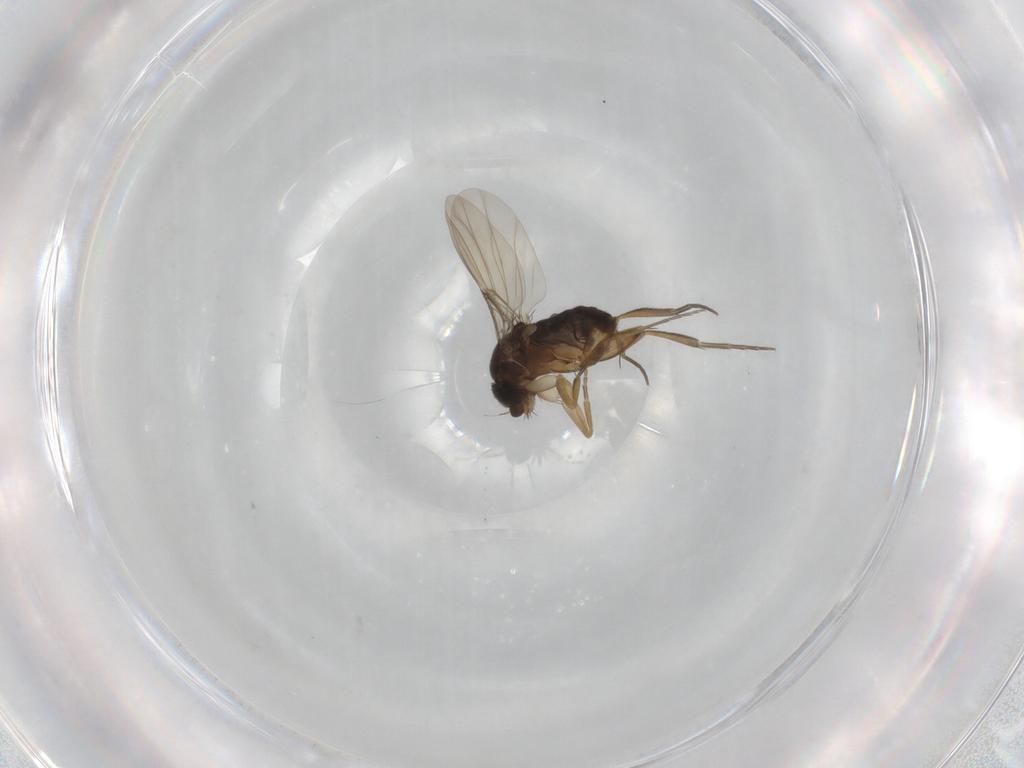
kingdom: Animalia
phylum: Arthropoda
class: Insecta
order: Diptera
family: Phoridae
